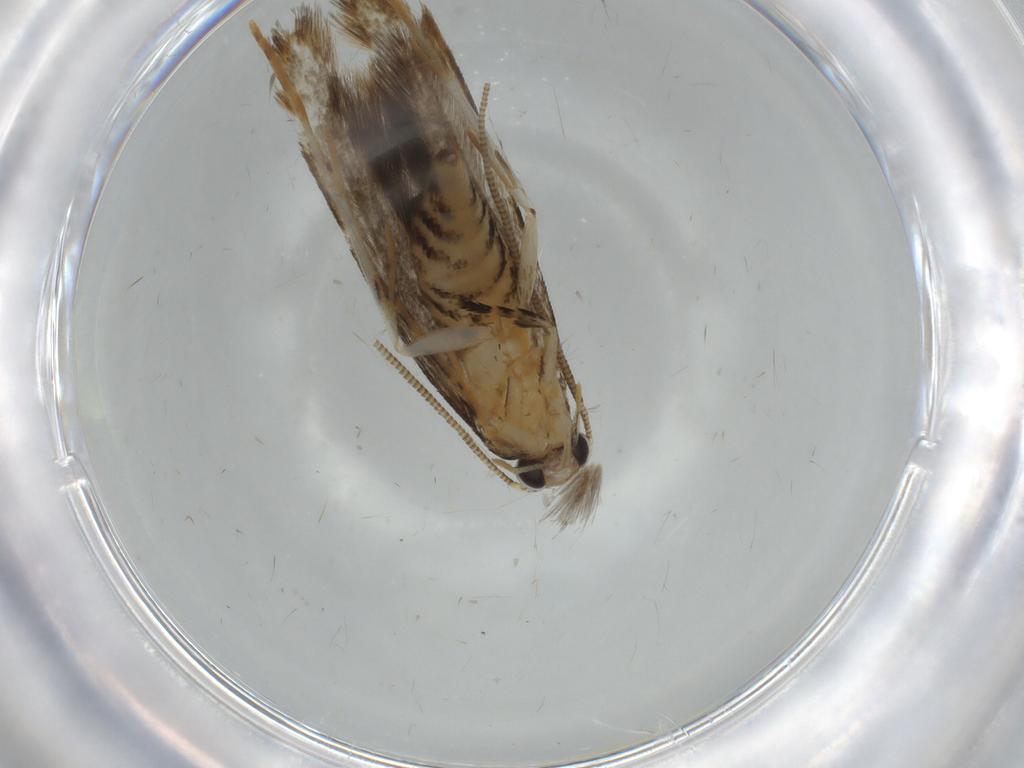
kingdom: Animalia
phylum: Arthropoda
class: Insecta
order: Lepidoptera
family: Tineidae
